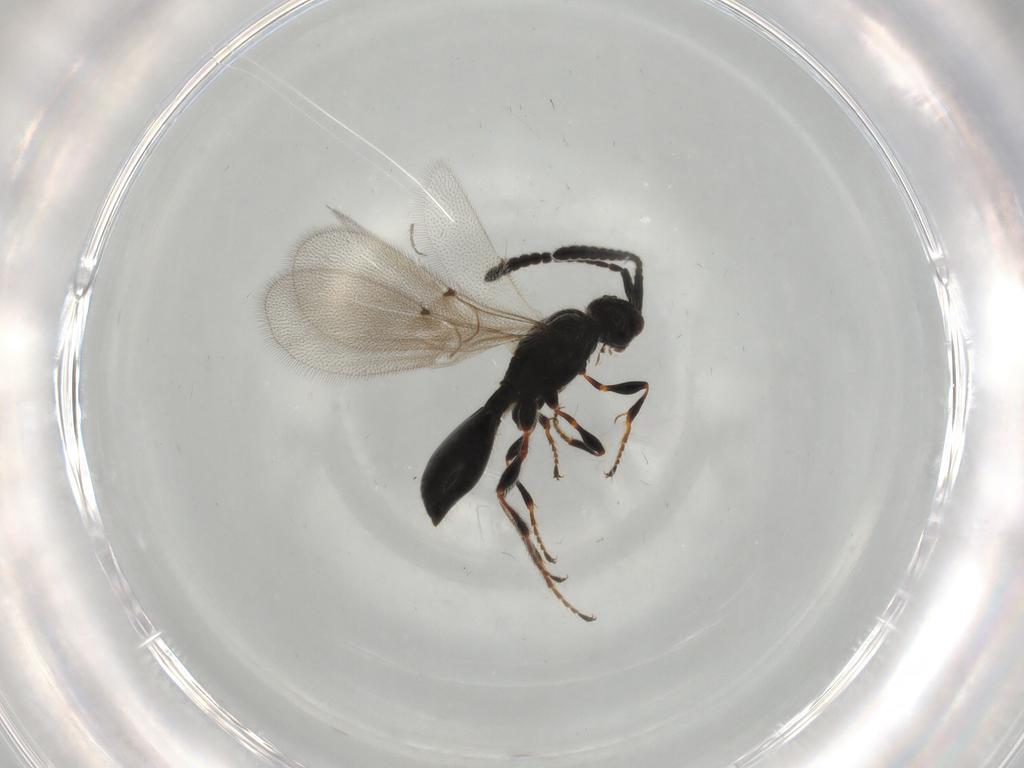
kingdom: Animalia
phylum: Arthropoda
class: Insecta
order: Hymenoptera
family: Diapriidae
